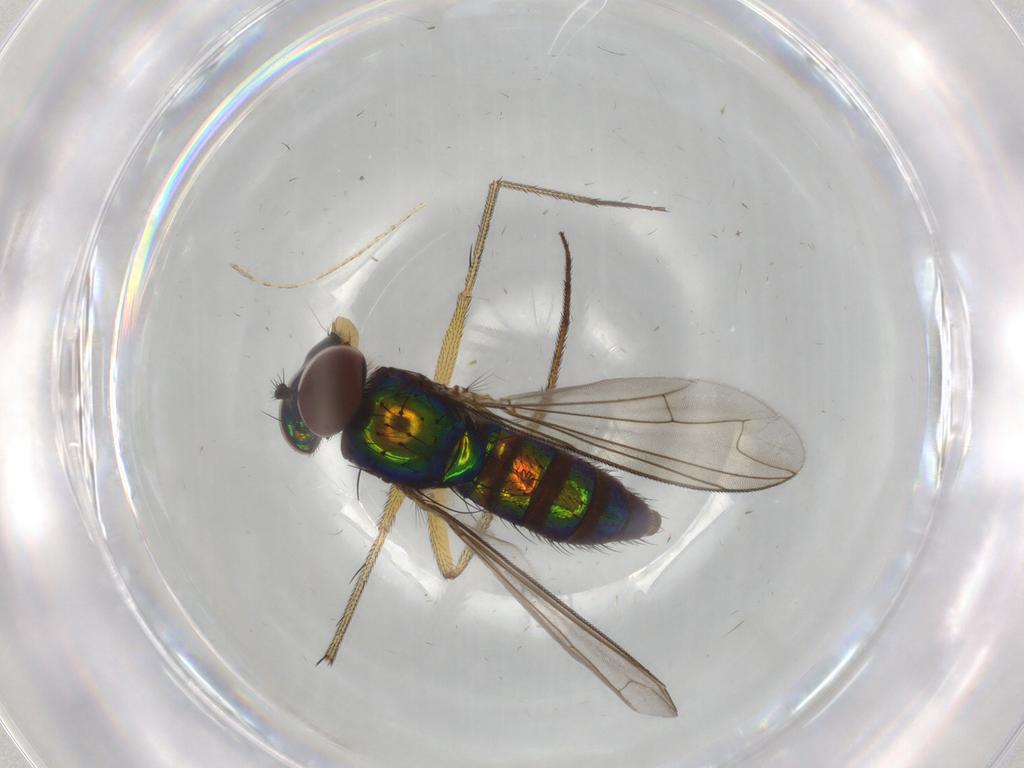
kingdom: Animalia
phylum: Arthropoda
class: Insecta
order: Diptera
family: Dolichopodidae
